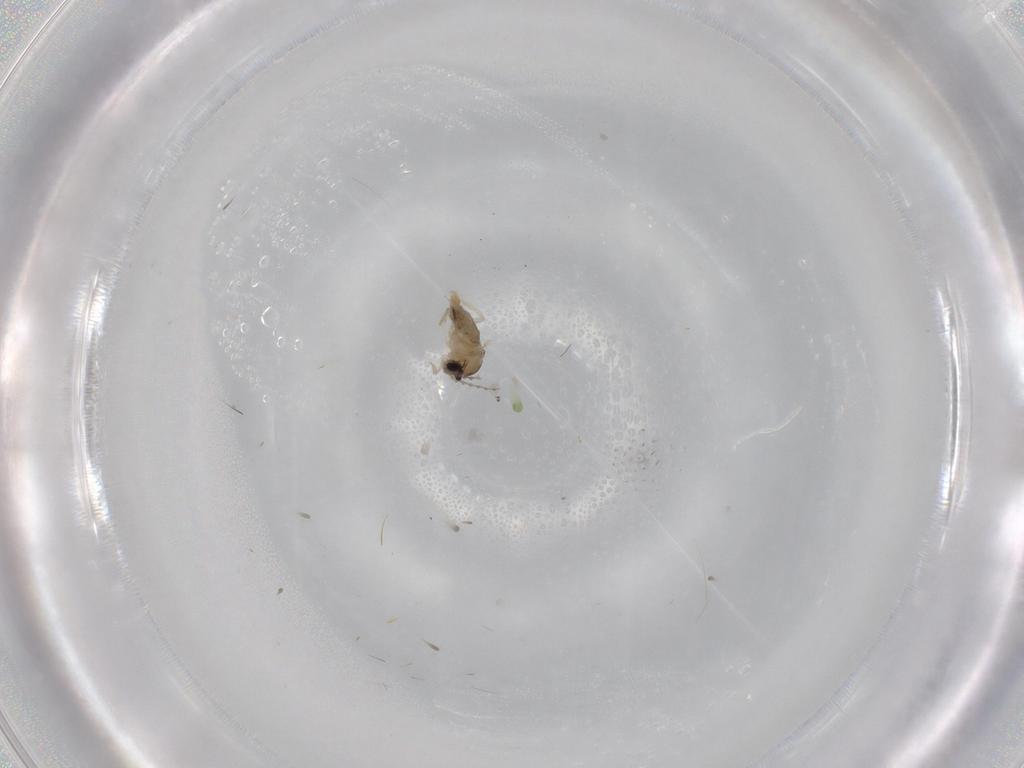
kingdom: Animalia
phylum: Arthropoda
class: Insecta
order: Diptera
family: Cecidomyiidae
